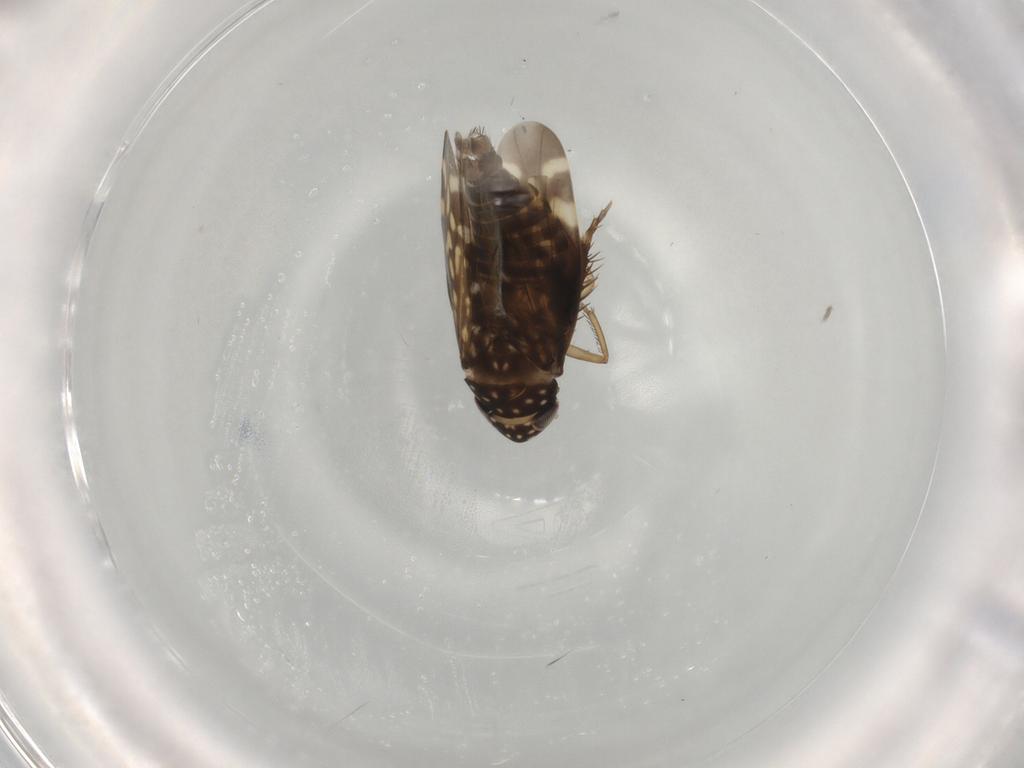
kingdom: Animalia
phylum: Arthropoda
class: Insecta
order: Hemiptera
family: Cicadellidae
